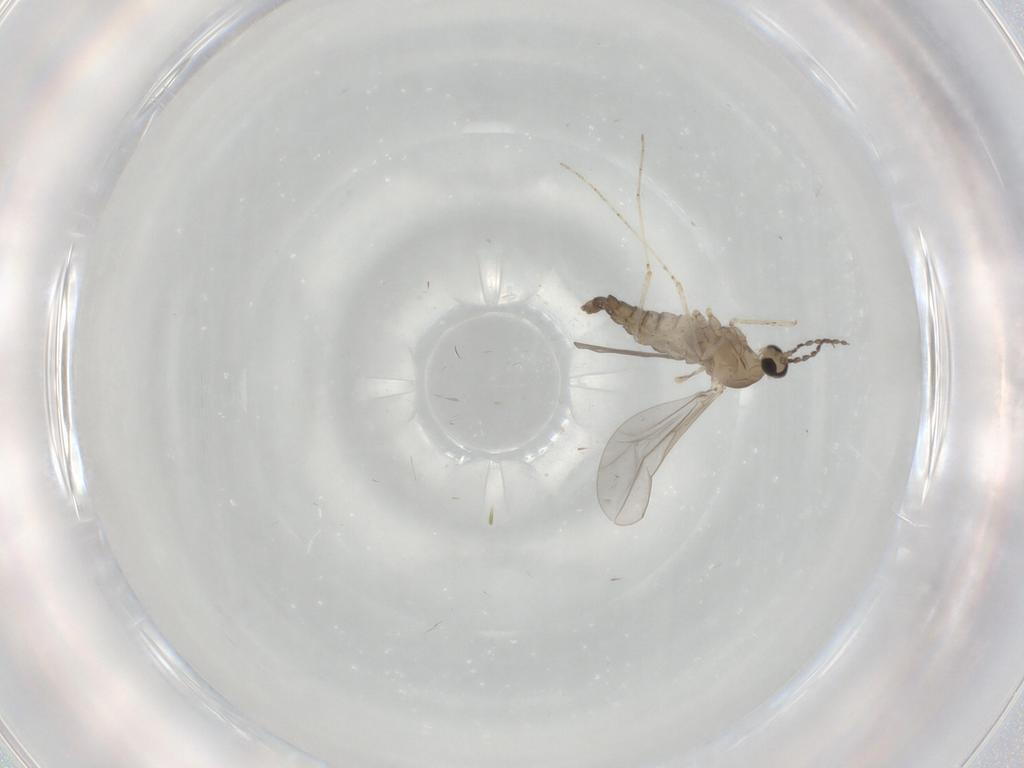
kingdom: Animalia
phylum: Arthropoda
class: Insecta
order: Diptera
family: Cecidomyiidae
